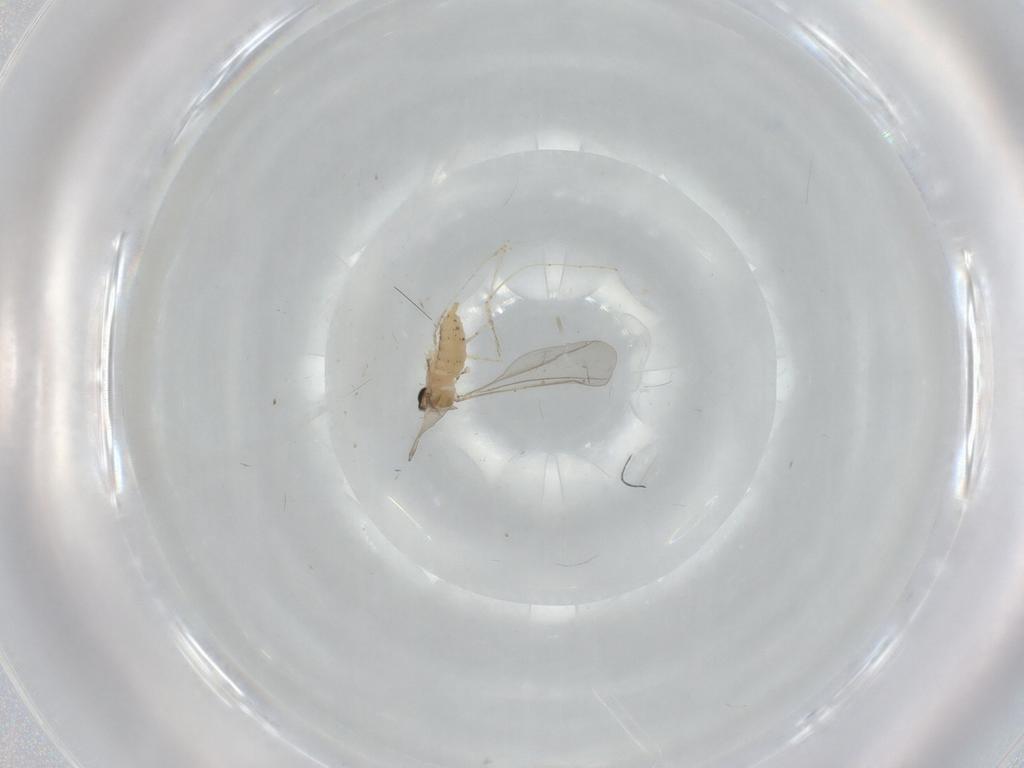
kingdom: Animalia
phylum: Arthropoda
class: Insecta
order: Diptera
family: Cecidomyiidae
